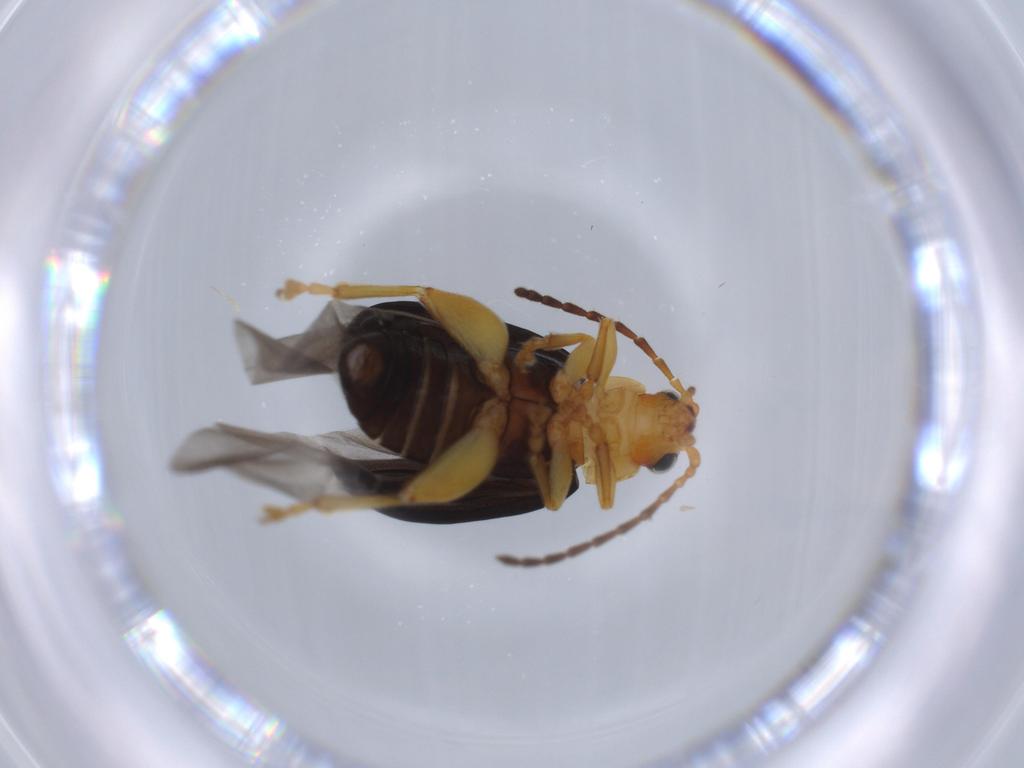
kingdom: Animalia
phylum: Arthropoda
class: Insecta
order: Coleoptera
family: Chrysomelidae
